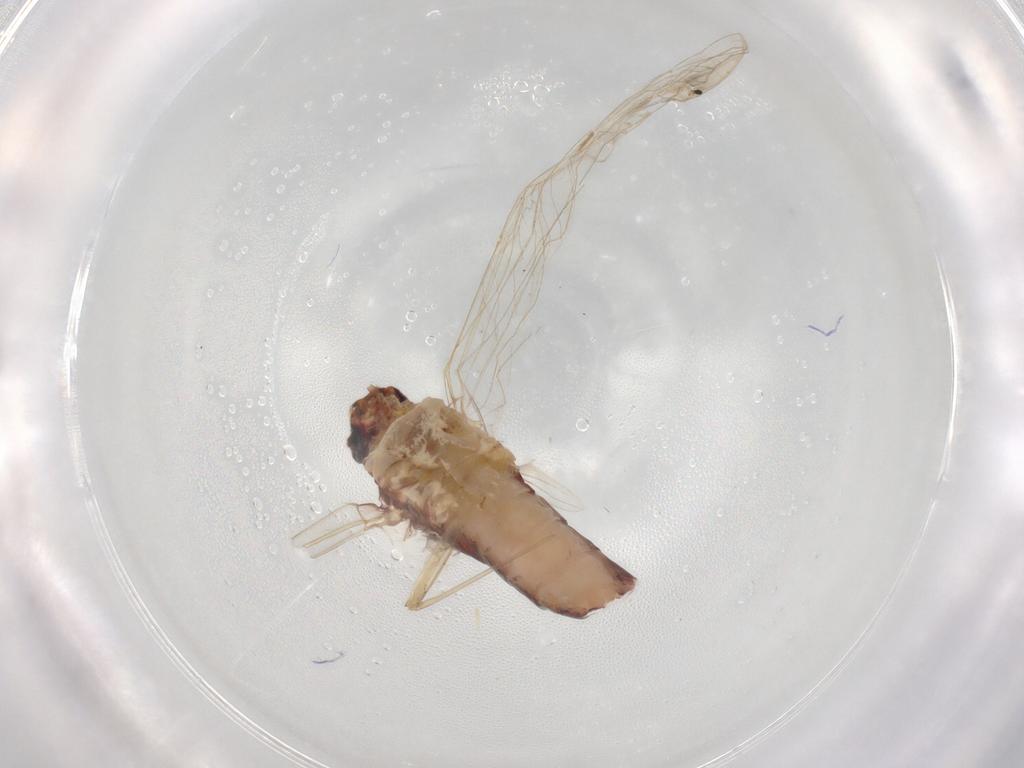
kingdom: Animalia
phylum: Arthropoda
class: Insecta
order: Ephemeroptera
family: Baetidae
